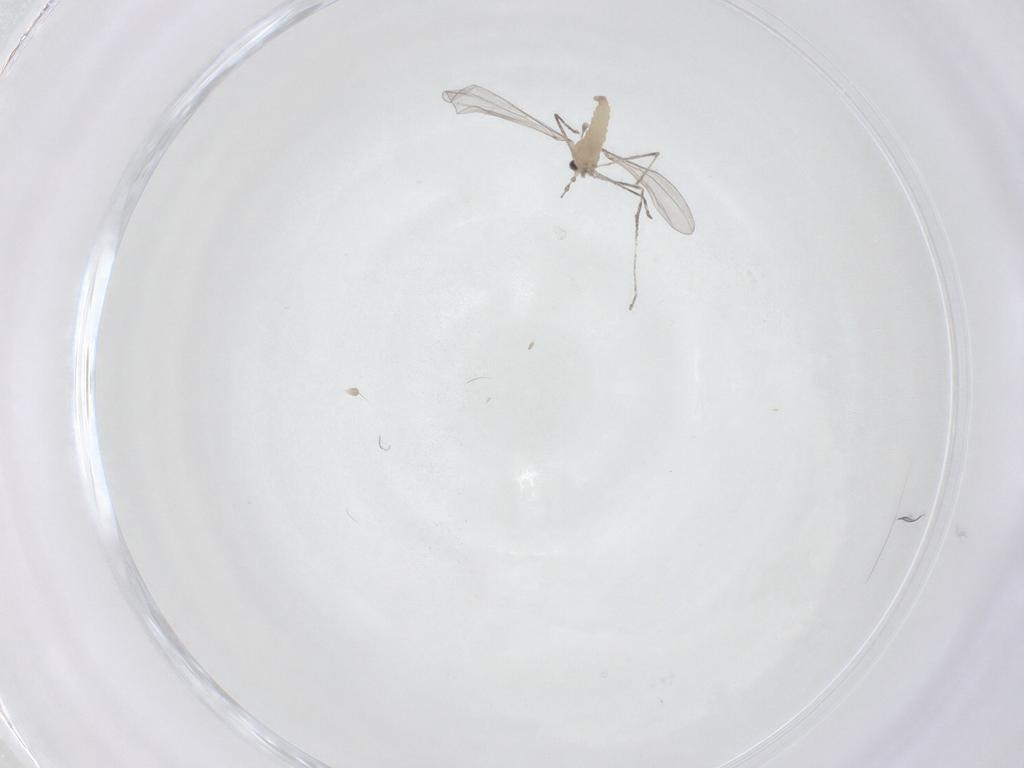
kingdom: Animalia
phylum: Arthropoda
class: Insecta
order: Diptera
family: Cecidomyiidae
